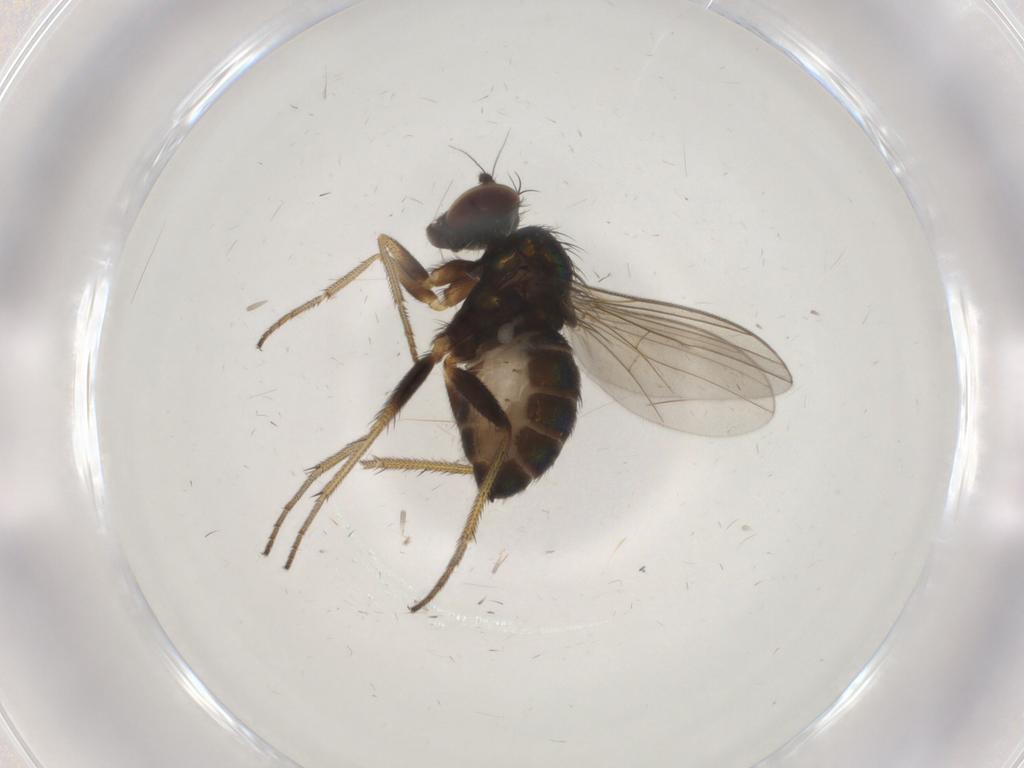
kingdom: Animalia
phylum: Arthropoda
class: Insecta
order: Diptera
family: Dolichopodidae
